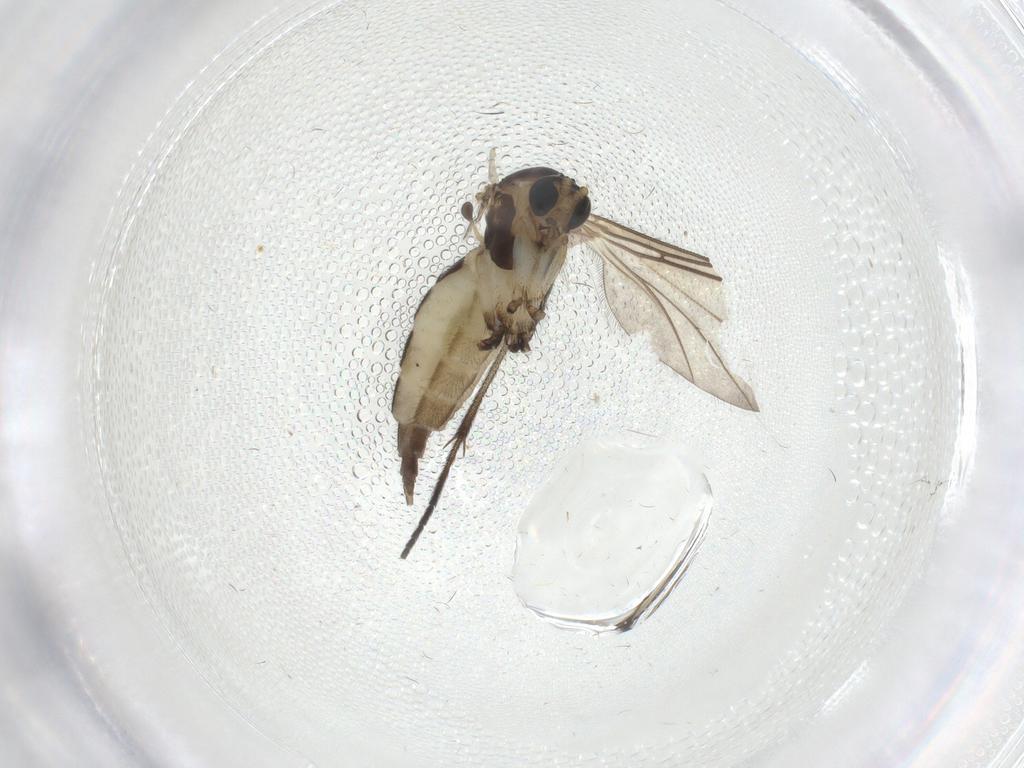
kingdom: Animalia
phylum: Arthropoda
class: Insecta
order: Diptera
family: Sciaridae
